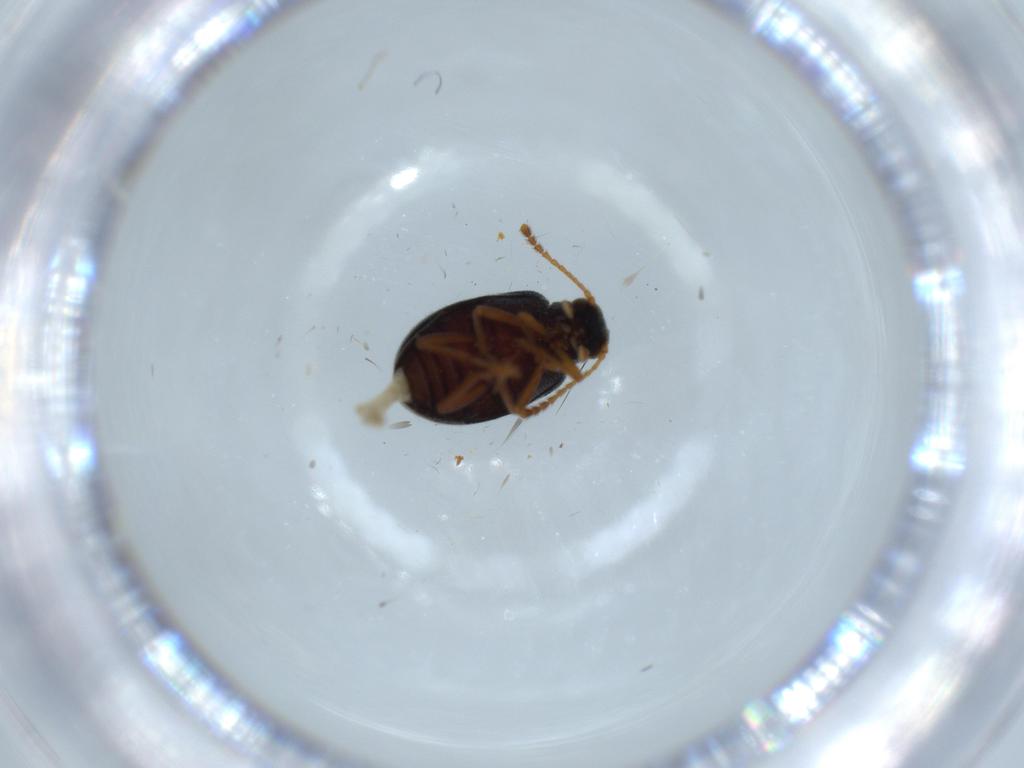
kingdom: Animalia
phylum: Arthropoda
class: Insecta
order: Coleoptera
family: Aderidae
